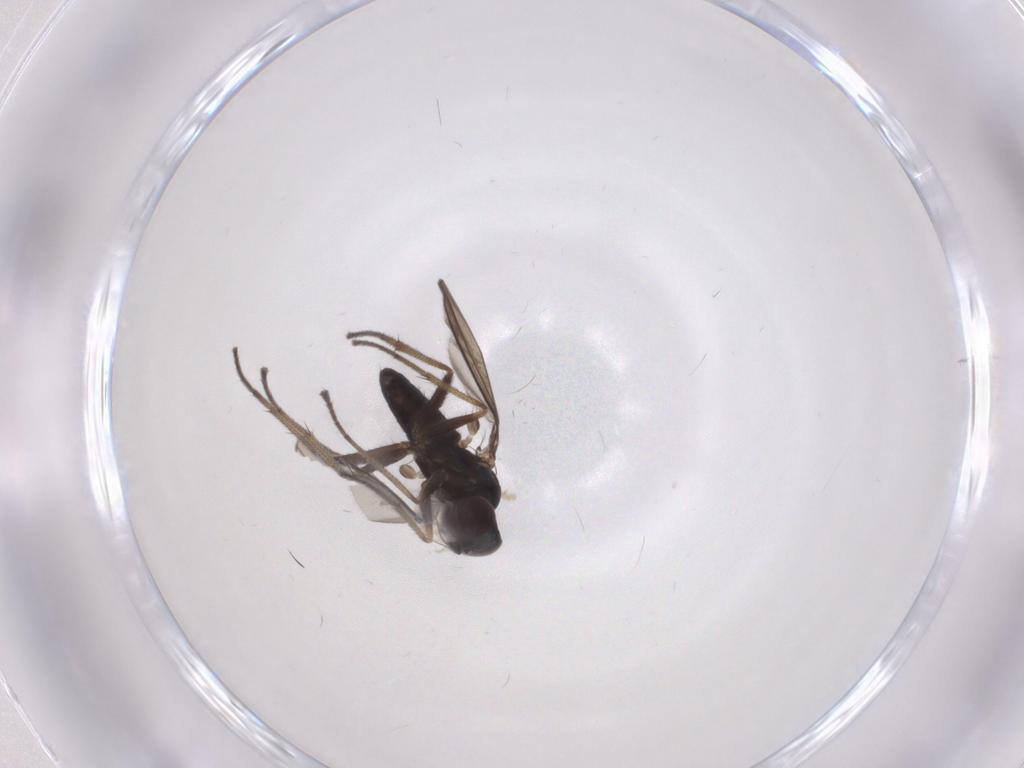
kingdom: Animalia
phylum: Arthropoda
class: Insecta
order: Diptera
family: Dolichopodidae
